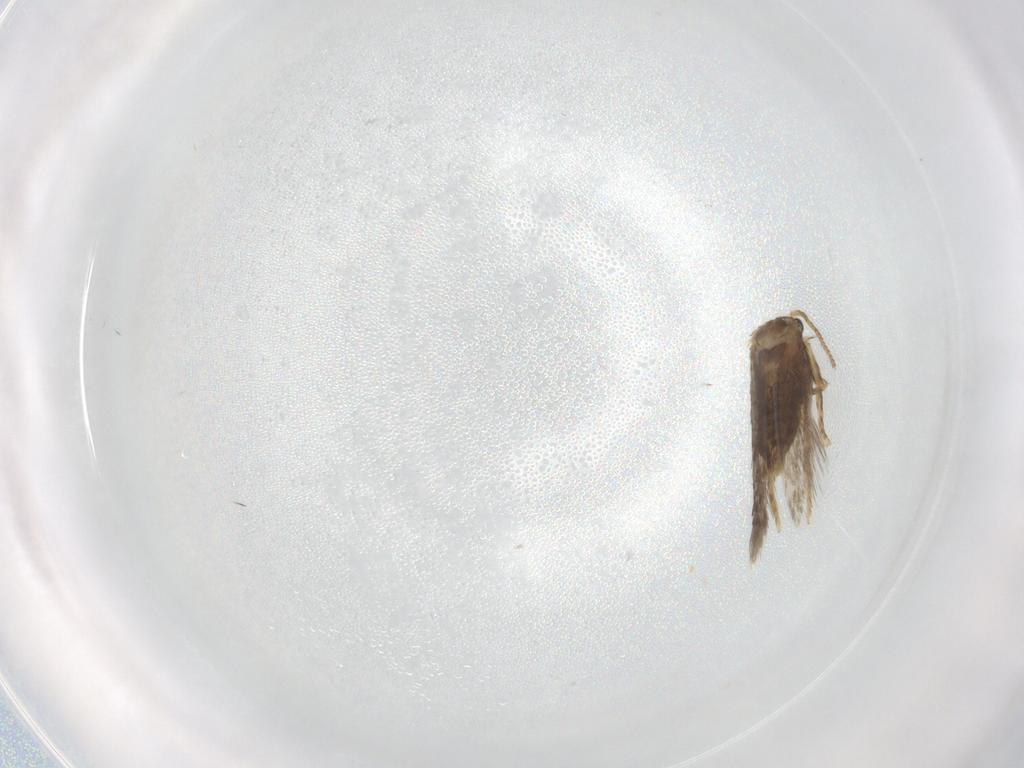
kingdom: Animalia
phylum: Arthropoda
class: Insecta
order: Lepidoptera
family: Nepticulidae
